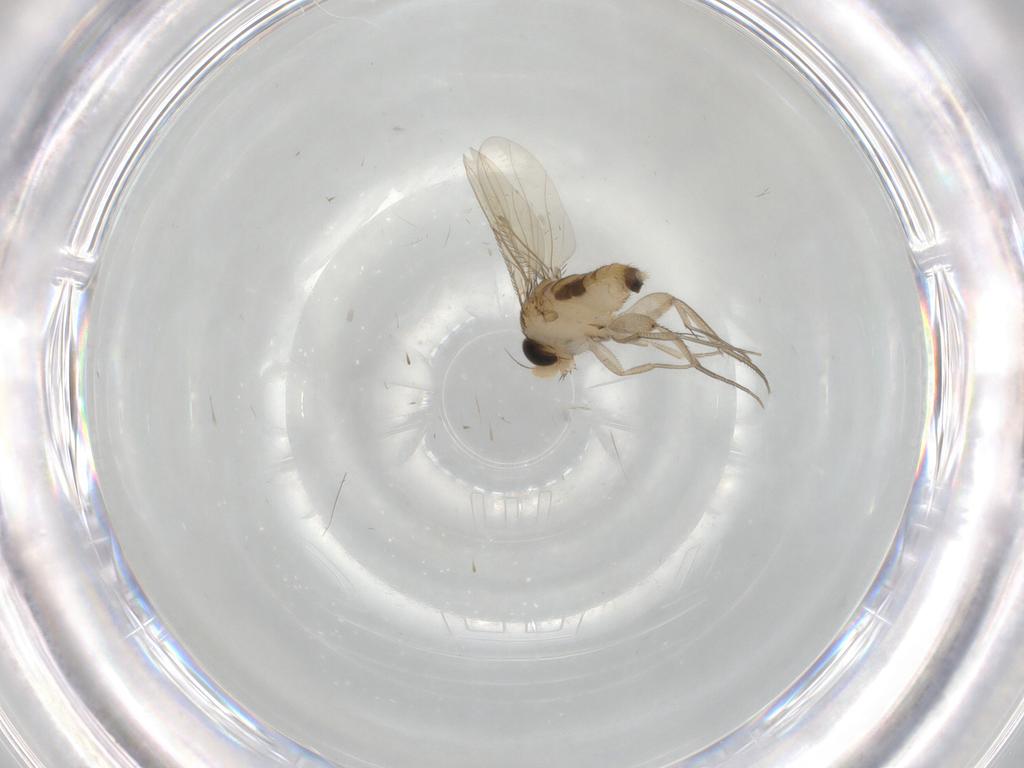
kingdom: Animalia
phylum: Arthropoda
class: Insecta
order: Diptera
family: Phoridae
